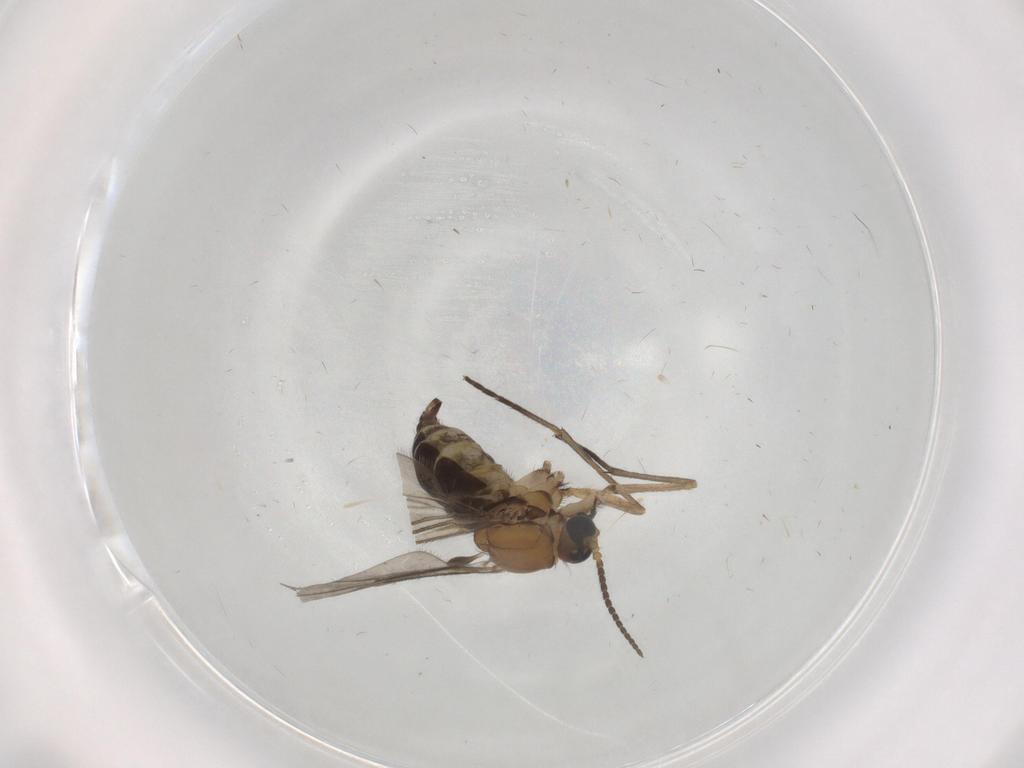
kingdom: Animalia
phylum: Arthropoda
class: Insecta
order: Diptera
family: Sciaridae
